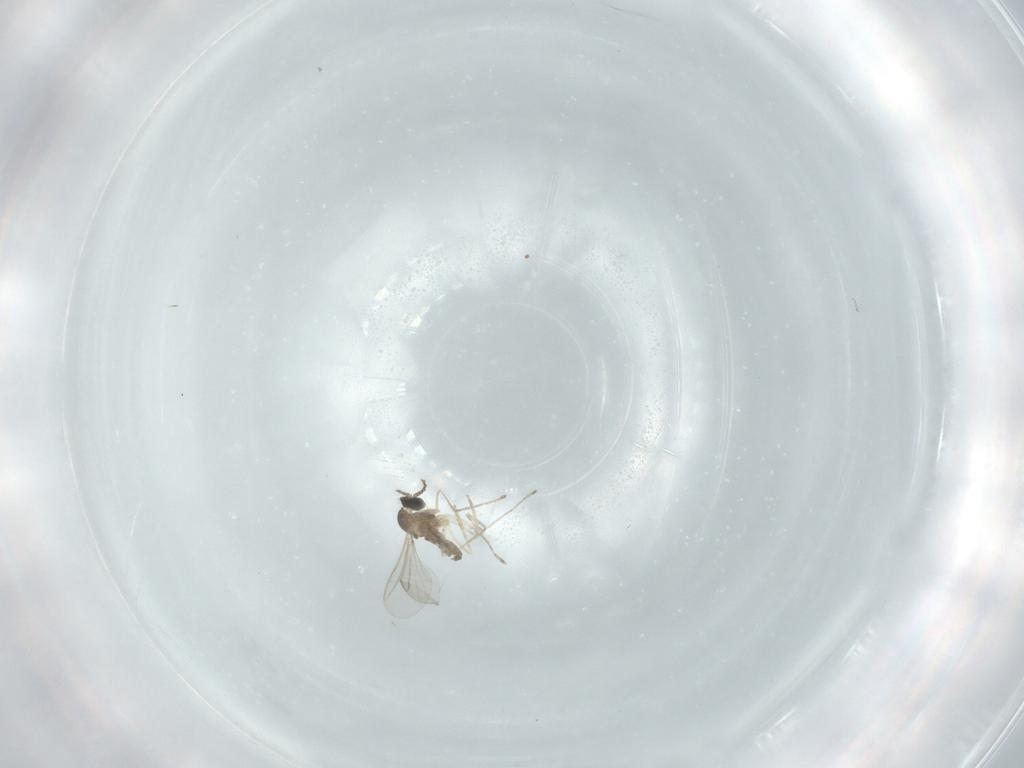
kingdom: Animalia
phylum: Arthropoda
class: Insecta
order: Diptera
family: Cecidomyiidae
